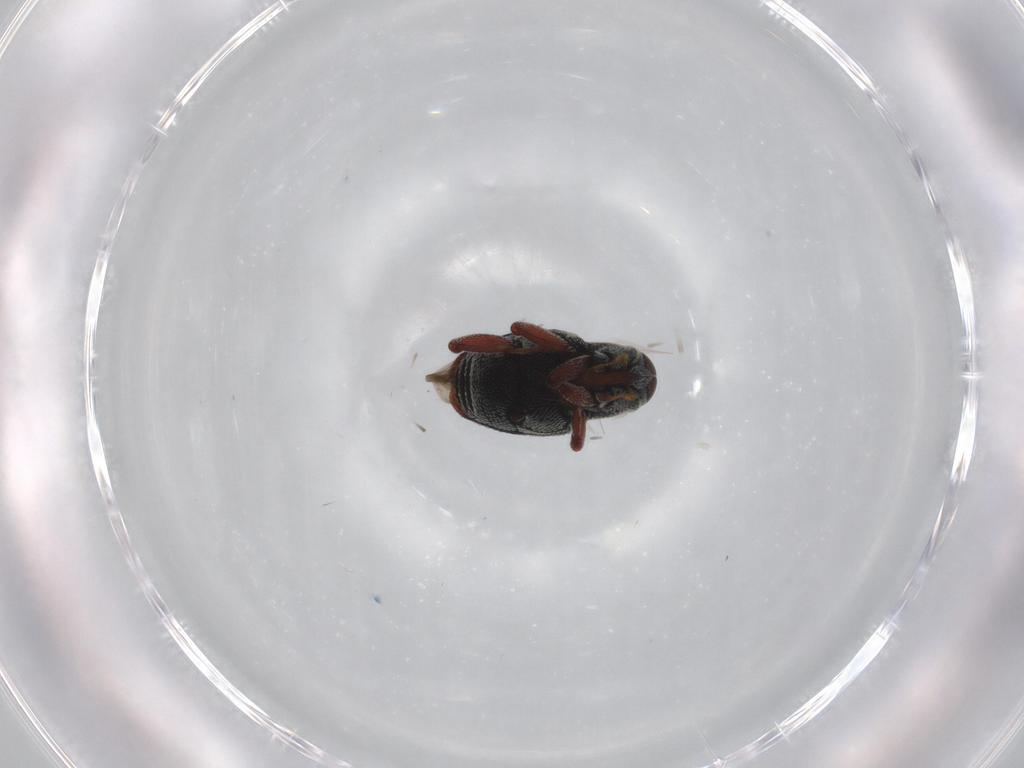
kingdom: Animalia
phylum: Arthropoda
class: Insecta
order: Coleoptera
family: Curculionidae
